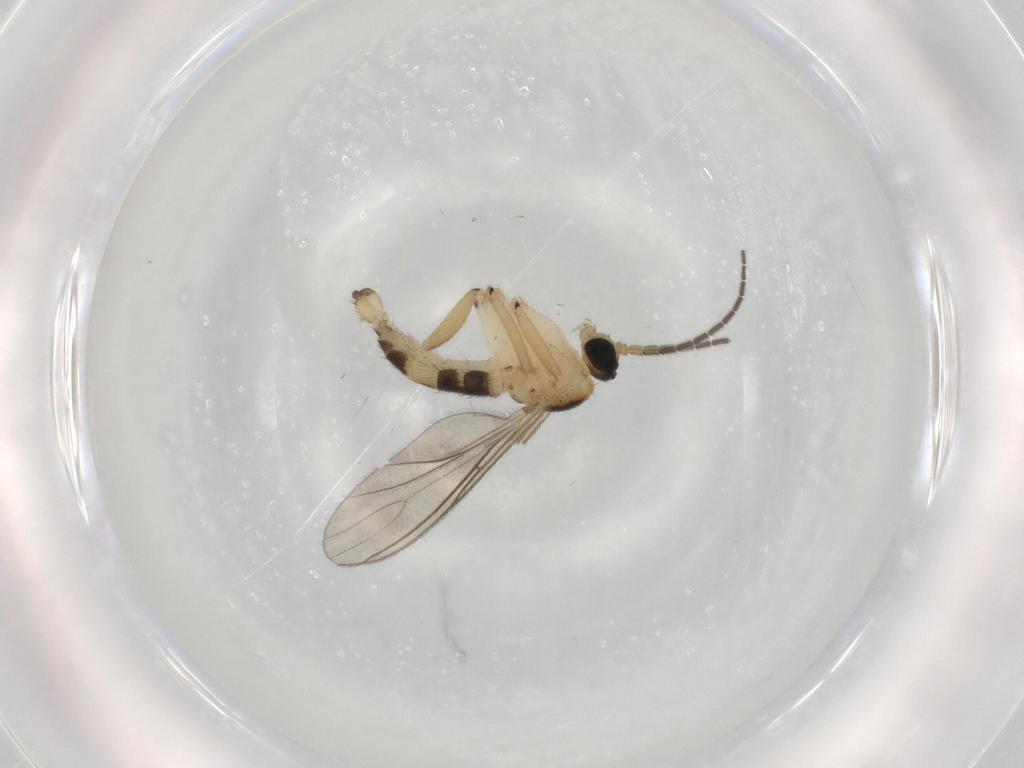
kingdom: Animalia
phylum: Arthropoda
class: Insecta
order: Diptera
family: Sciaridae
